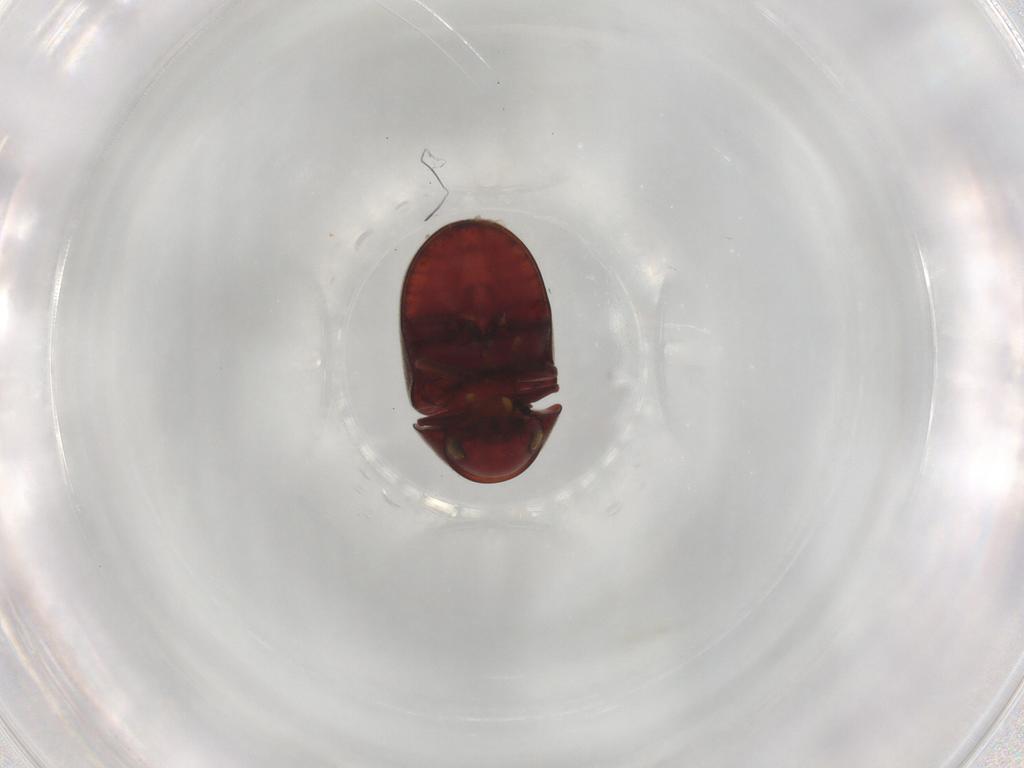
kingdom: Animalia
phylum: Arthropoda
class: Insecta
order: Coleoptera
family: Ptinidae
